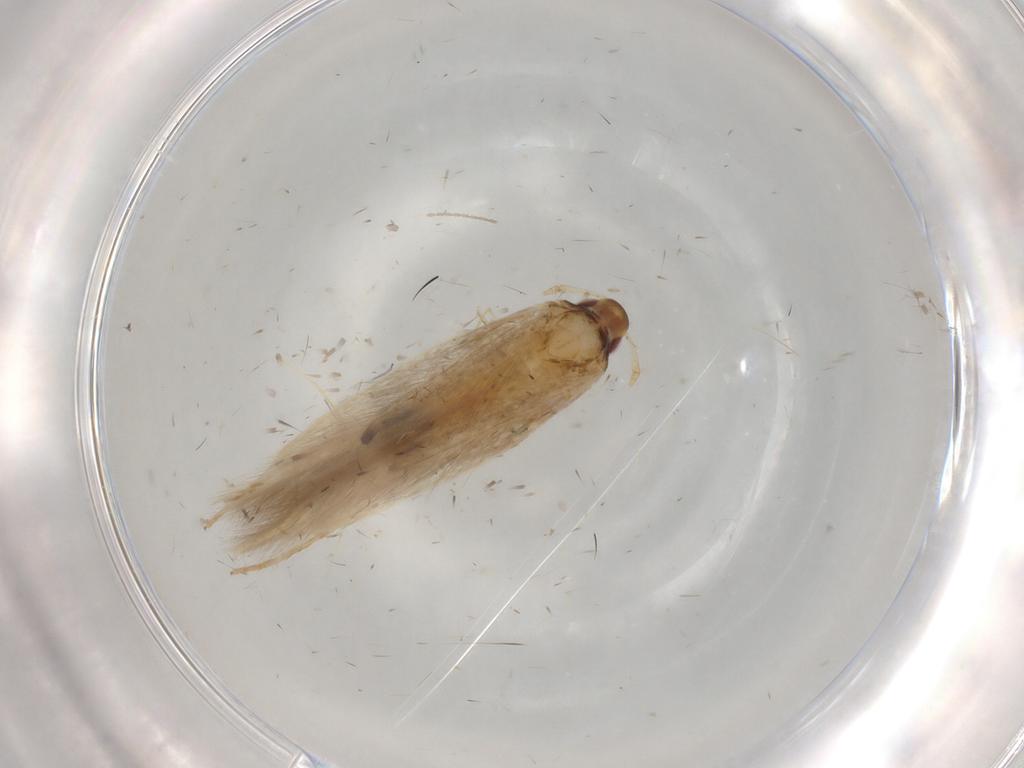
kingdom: Animalia
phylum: Arthropoda
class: Insecta
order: Lepidoptera
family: Cosmopterigidae
